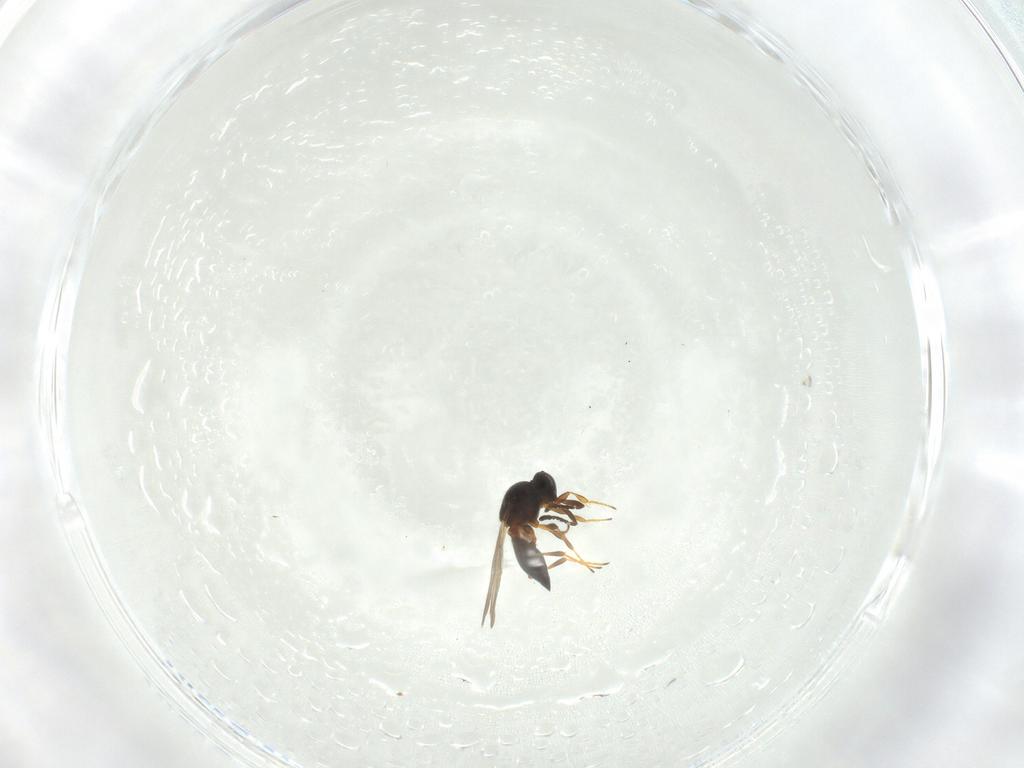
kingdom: Animalia
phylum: Arthropoda
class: Insecta
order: Hymenoptera
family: Platygastridae
